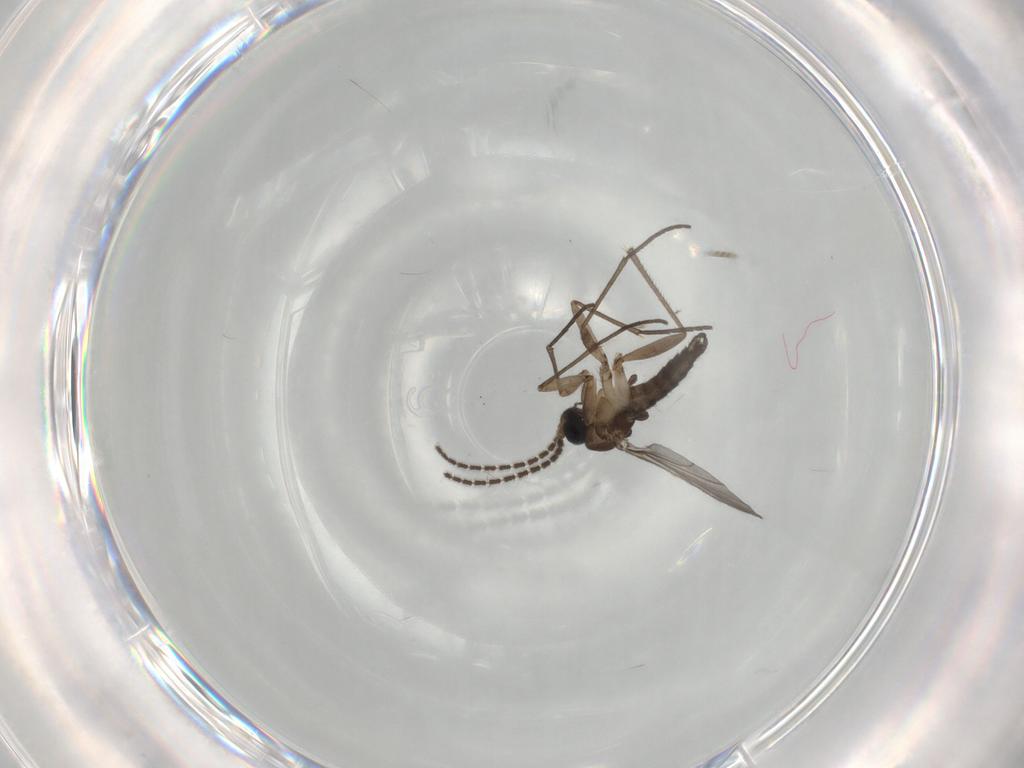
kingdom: Animalia
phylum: Arthropoda
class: Insecta
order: Diptera
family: Sciaridae
